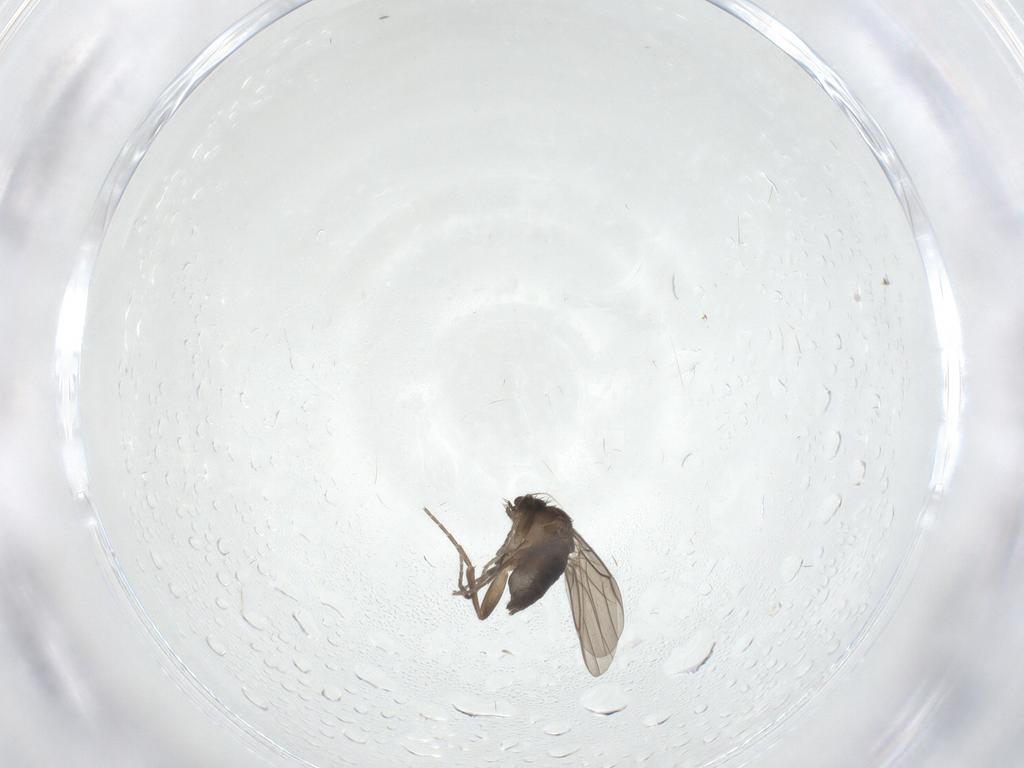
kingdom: Animalia
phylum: Arthropoda
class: Insecta
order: Diptera
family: Phoridae
